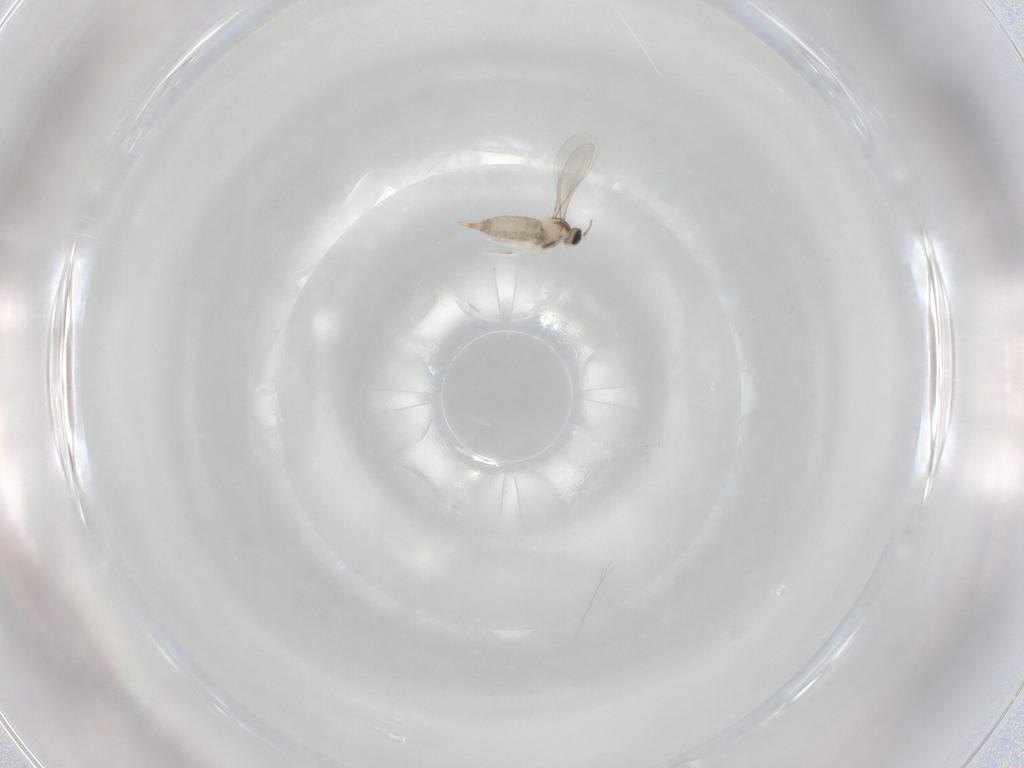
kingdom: Animalia
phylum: Arthropoda
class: Insecta
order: Diptera
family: Cecidomyiidae
